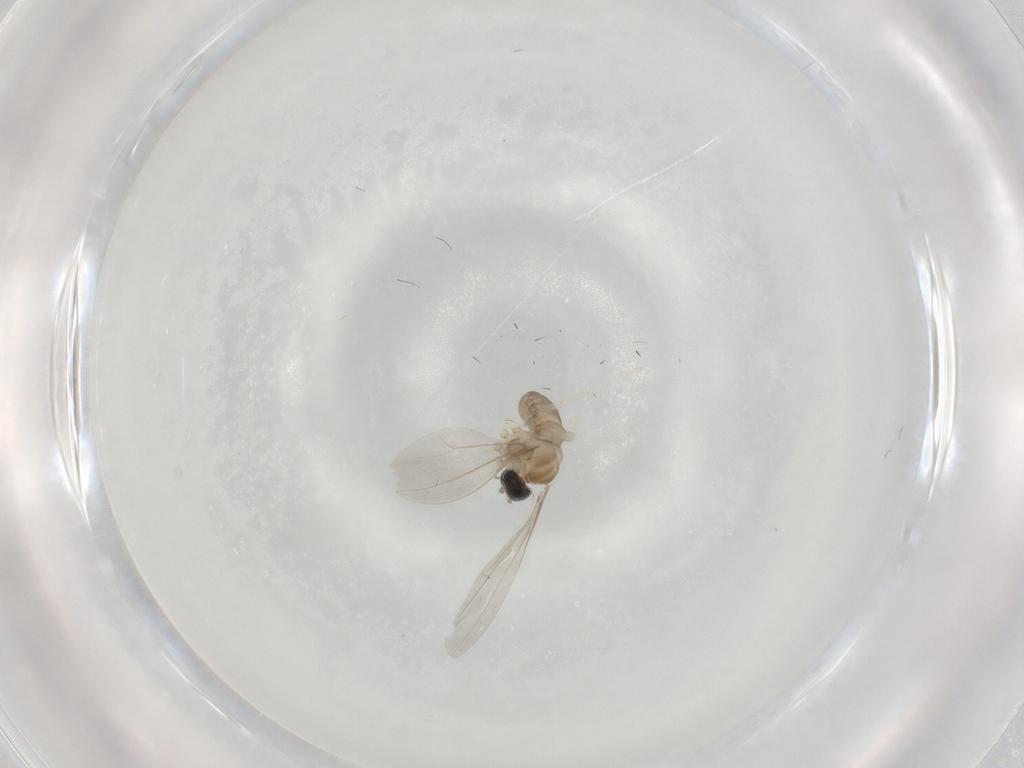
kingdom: Animalia
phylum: Arthropoda
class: Insecta
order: Diptera
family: Cecidomyiidae
